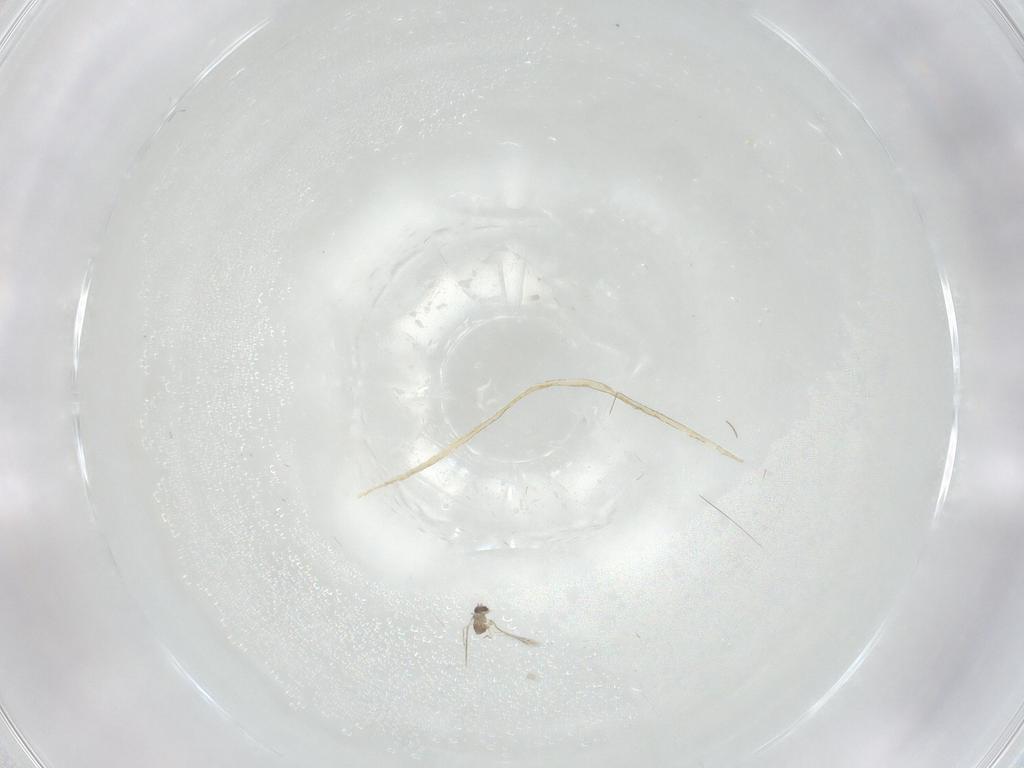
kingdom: Animalia
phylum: Arthropoda
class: Insecta
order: Hymenoptera
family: Mymaridae
